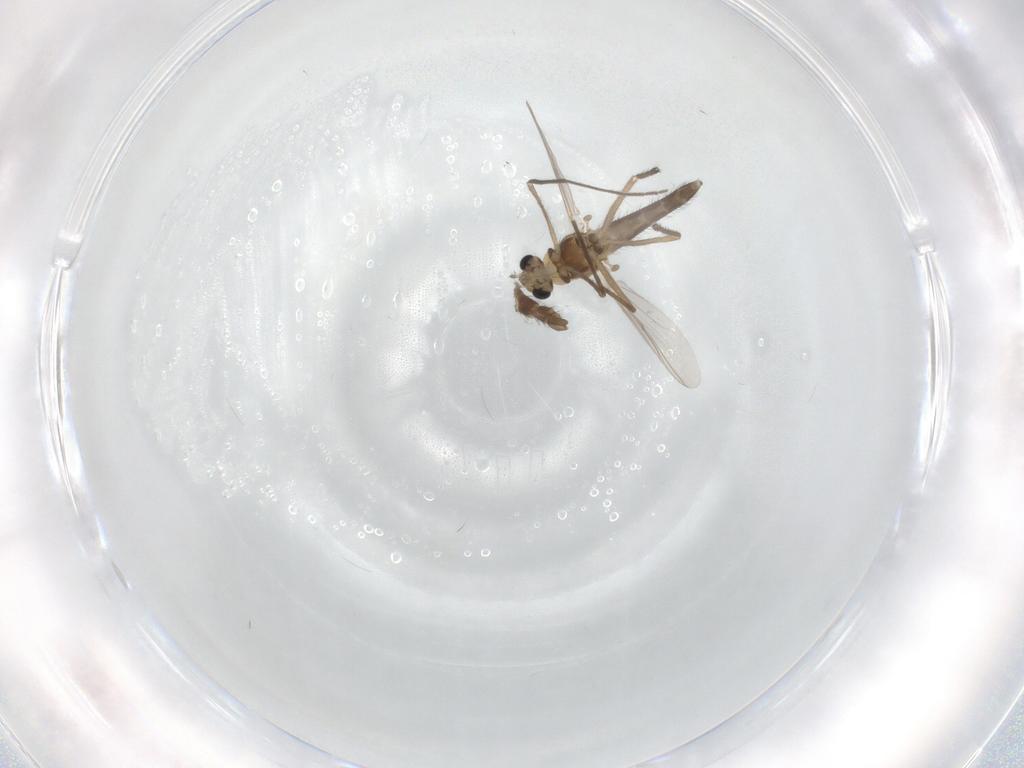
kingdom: Animalia
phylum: Arthropoda
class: Insecta
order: Diptera
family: Chironomidae
